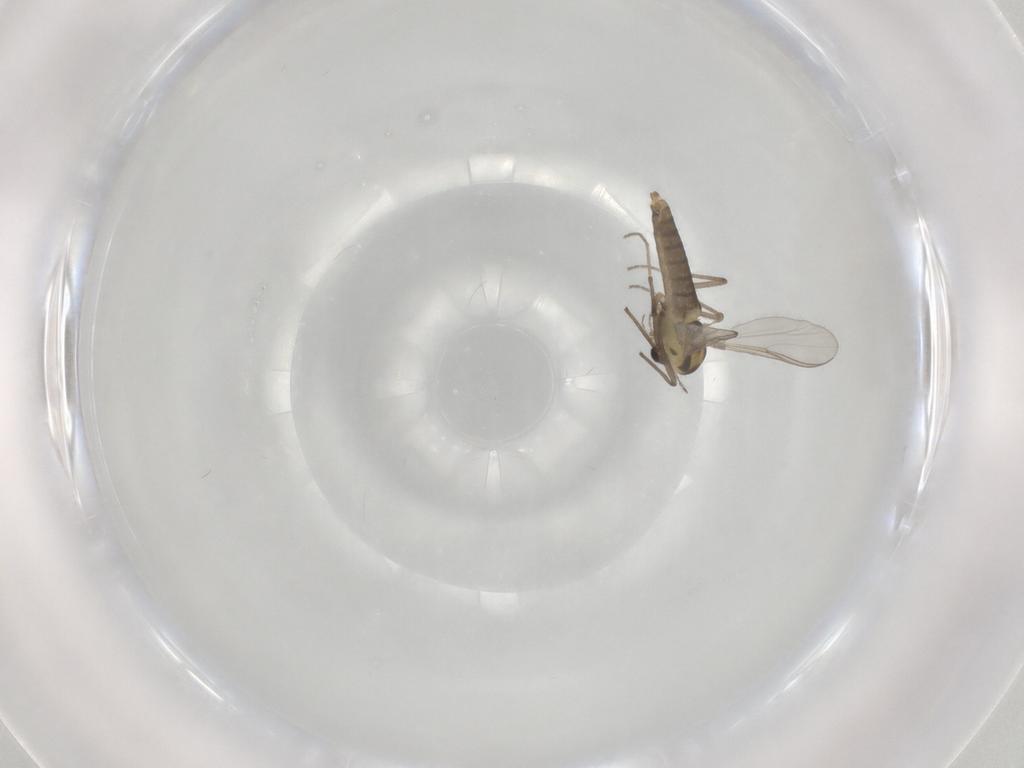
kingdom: Animalia
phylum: Arthropoda
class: Insecta
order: Diptera
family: Chironomidae
